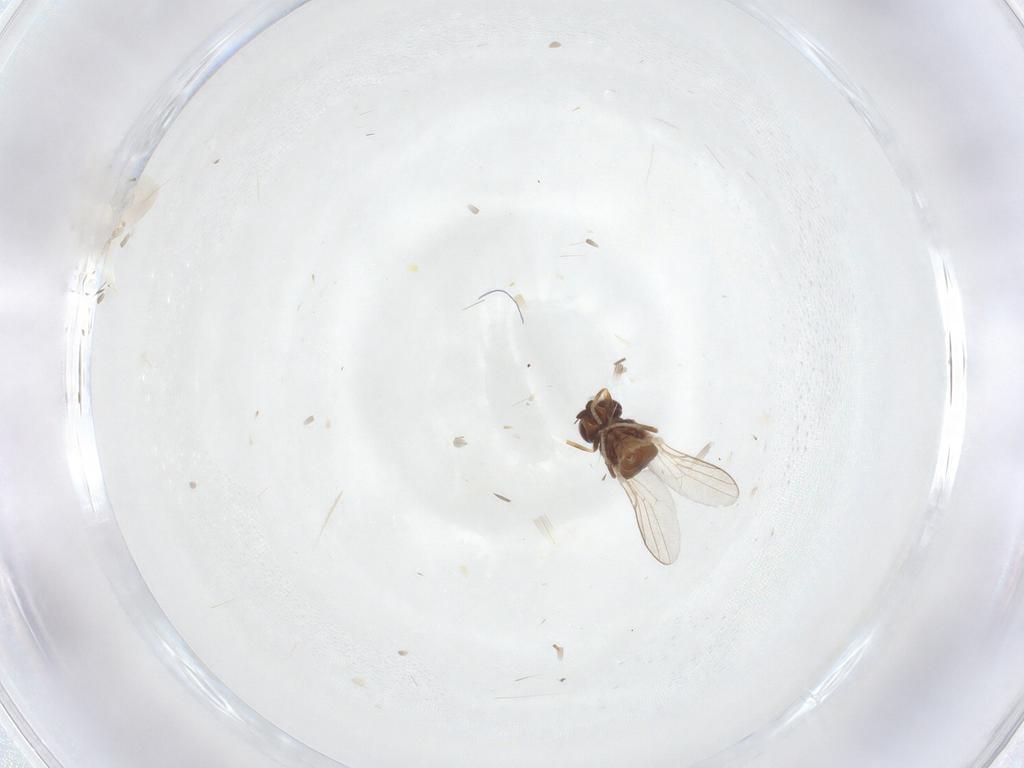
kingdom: Animalia
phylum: Arthropoda
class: Insecta
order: Diptera
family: Chloropidae
